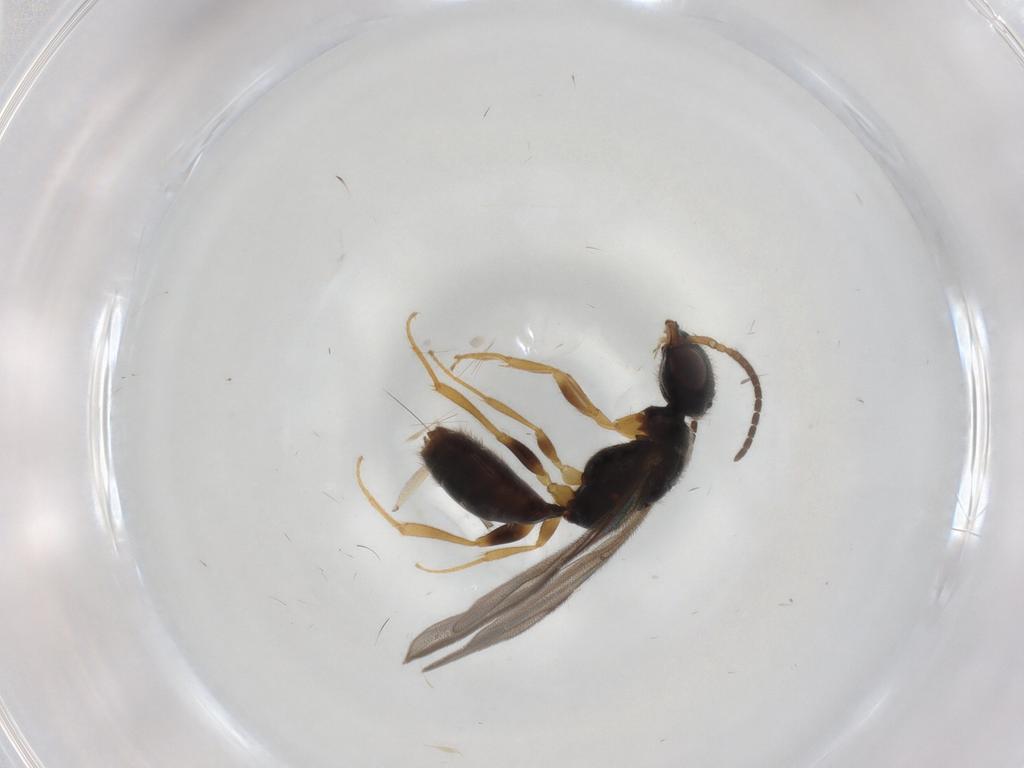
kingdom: Animalia
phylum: Arthropoda
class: Insecta
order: Hymenoptera
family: Bethylidae
